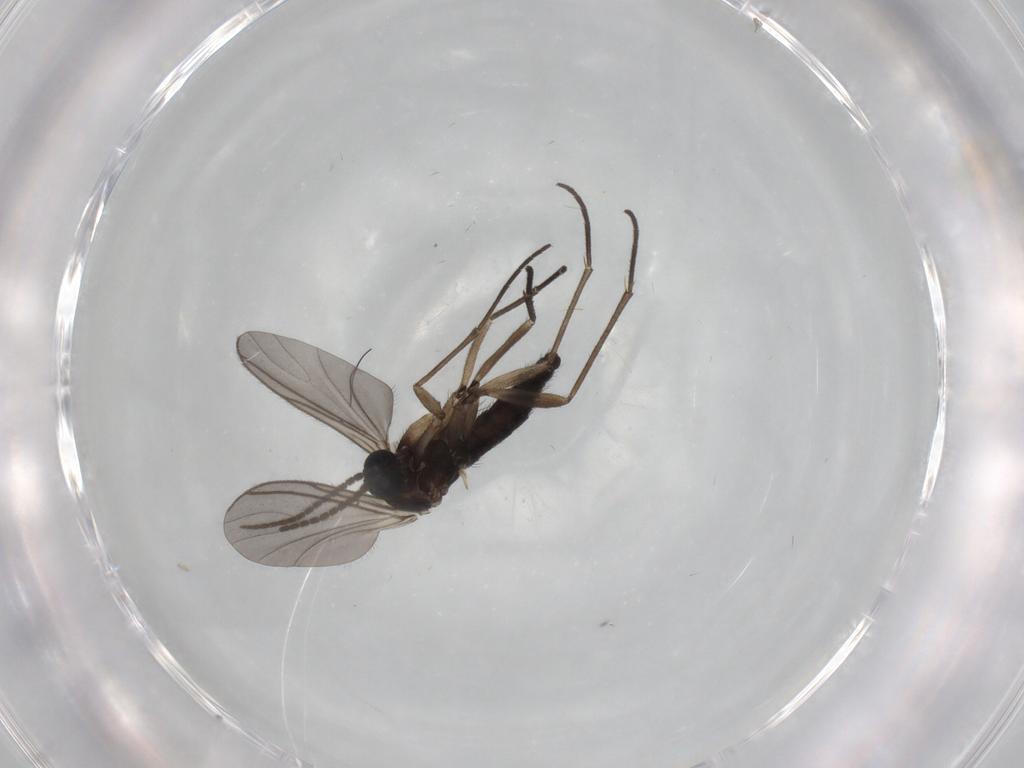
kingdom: Animalia
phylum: Arthropoda
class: Insecta
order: Diptera
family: Sciaridae
